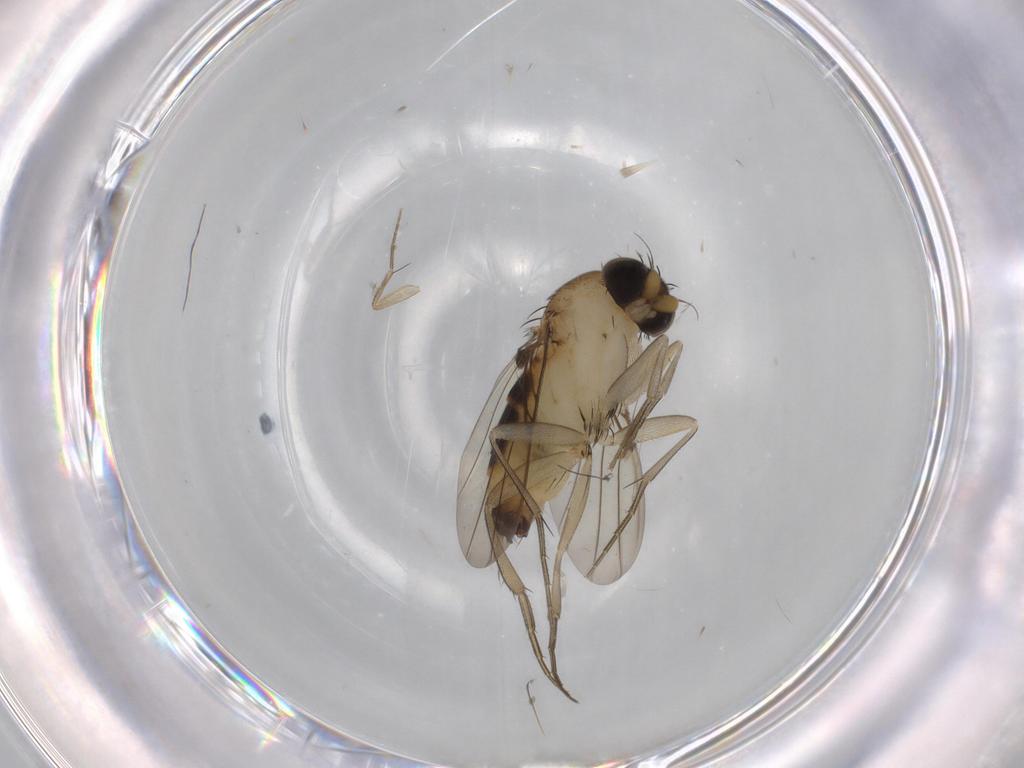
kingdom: Animalia
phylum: Arthropoda
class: Insecta
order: Diptera
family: Phoridae
